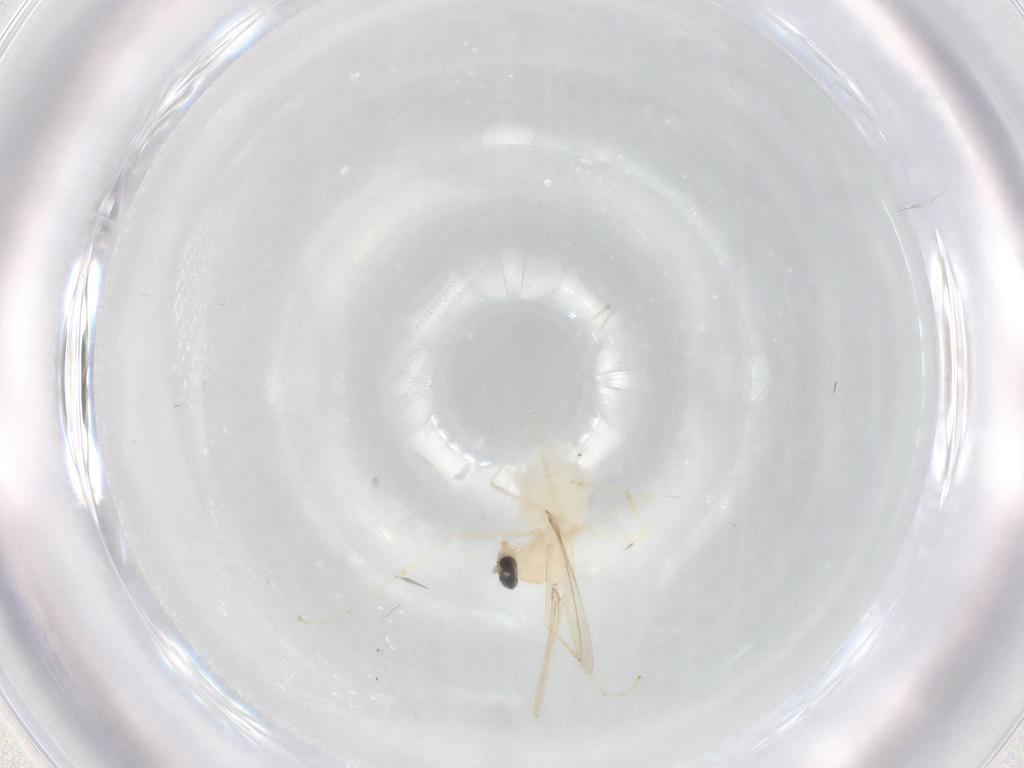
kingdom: Animalia
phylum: Arthropoda
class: Insecta
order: Diptera
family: Cecidomyiidae
